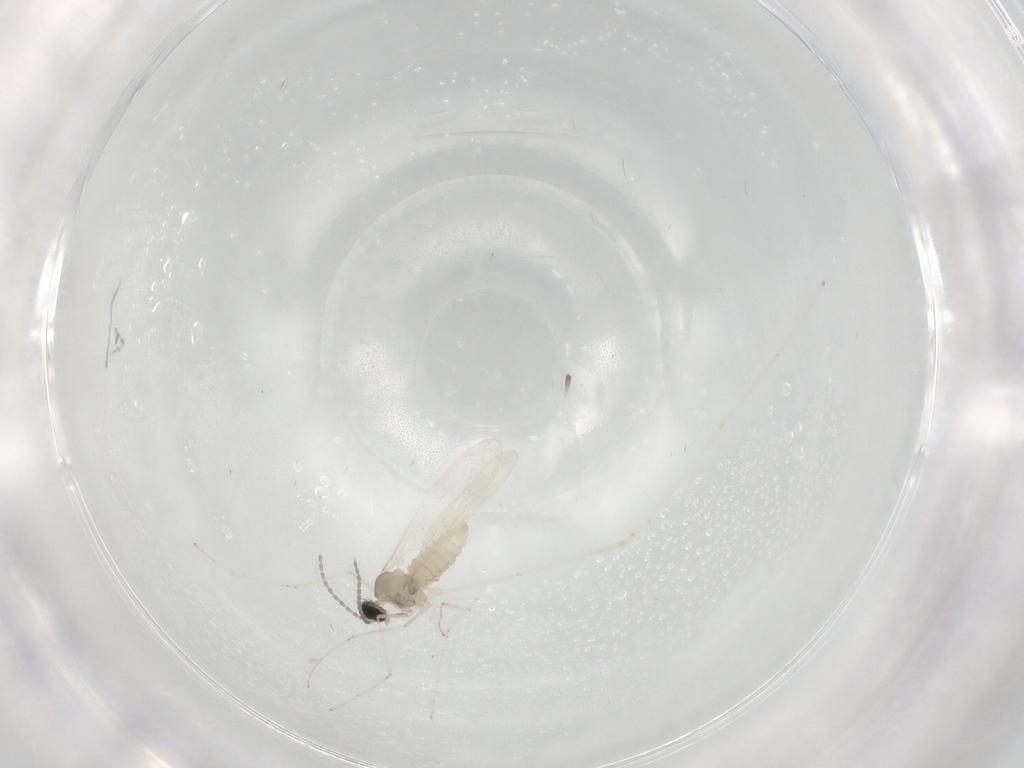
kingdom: Animalia
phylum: Arthropoda
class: Insecta
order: Diptera
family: Cecidomyiidae
